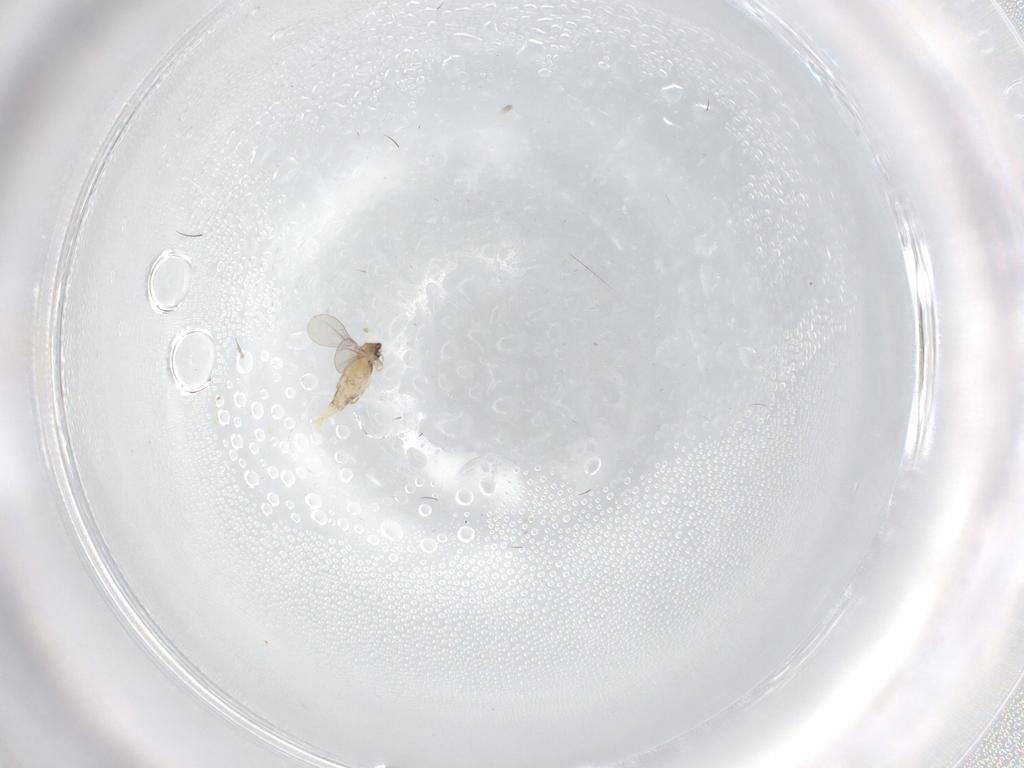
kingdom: Animalia
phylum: Arthropoda
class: Insecta
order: Diptera
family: Cecidomyiidae
